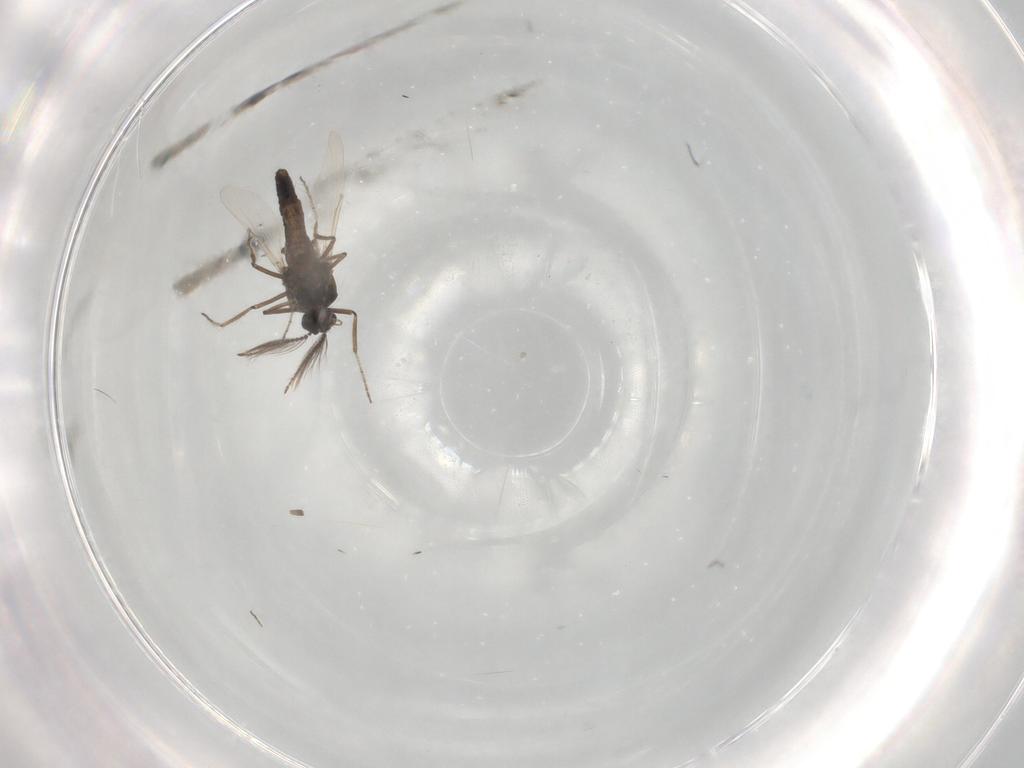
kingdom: Animalia
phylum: Arthropoda
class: Insecta
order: Diptera
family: Ceratopogonidae
